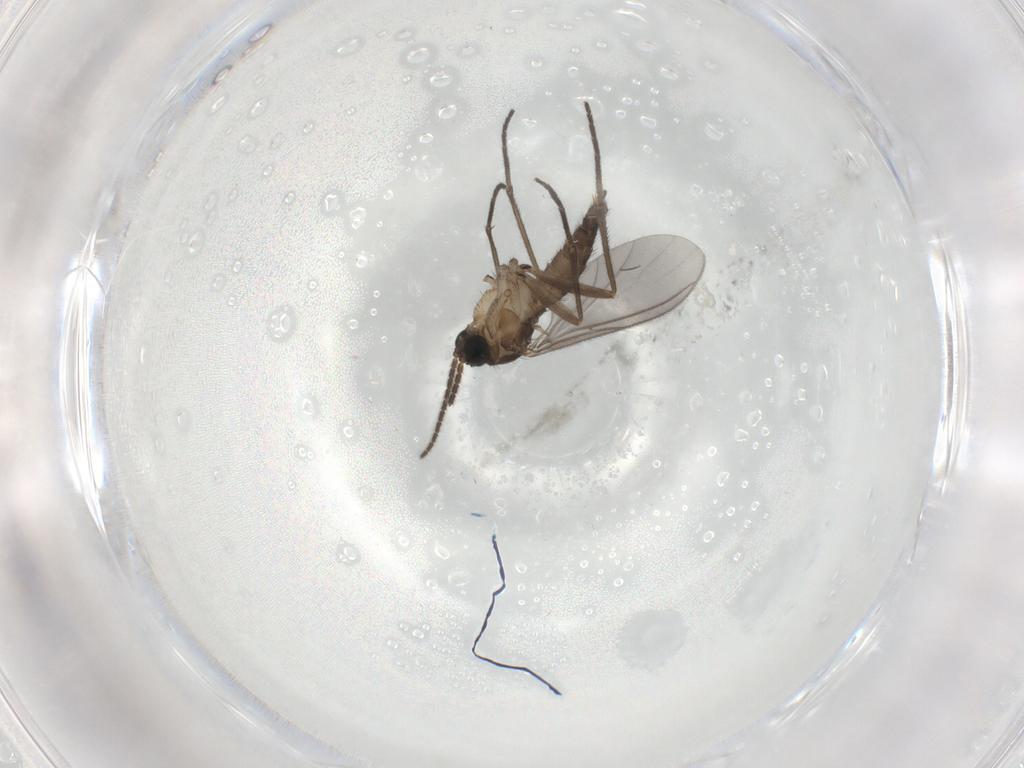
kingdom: Animalia
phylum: Arthropoda
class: Insecta
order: Diptera
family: Sciaridae
